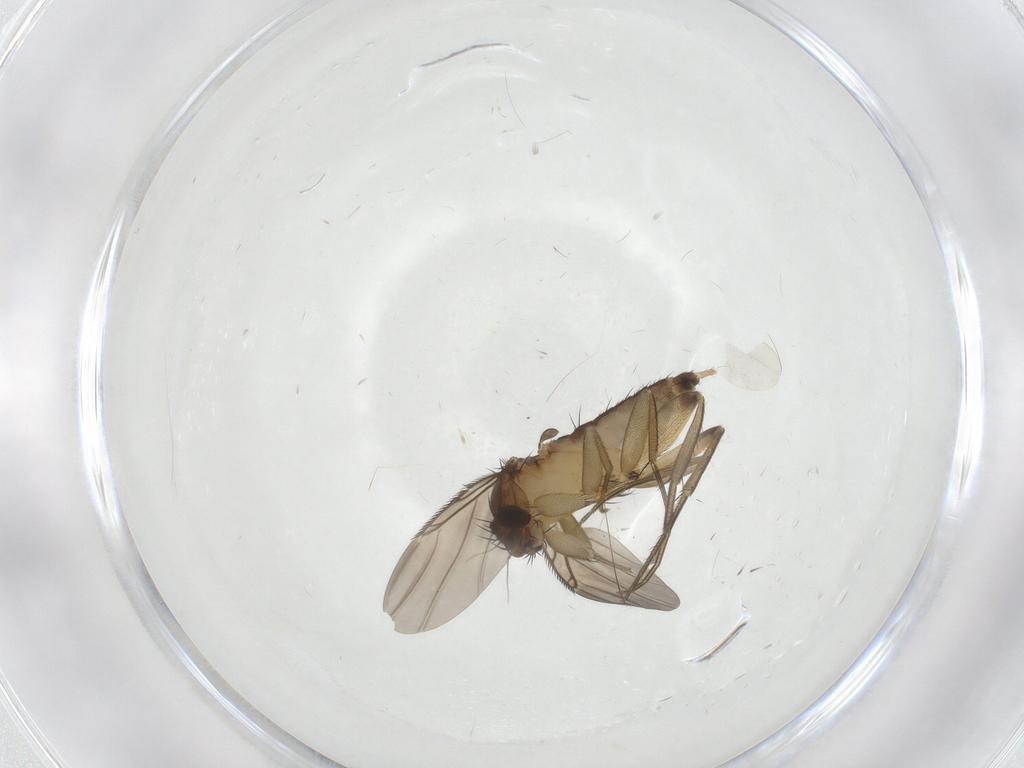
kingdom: Animalia
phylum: Arthropoda
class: Insecta
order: Diptera
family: Phoridae
